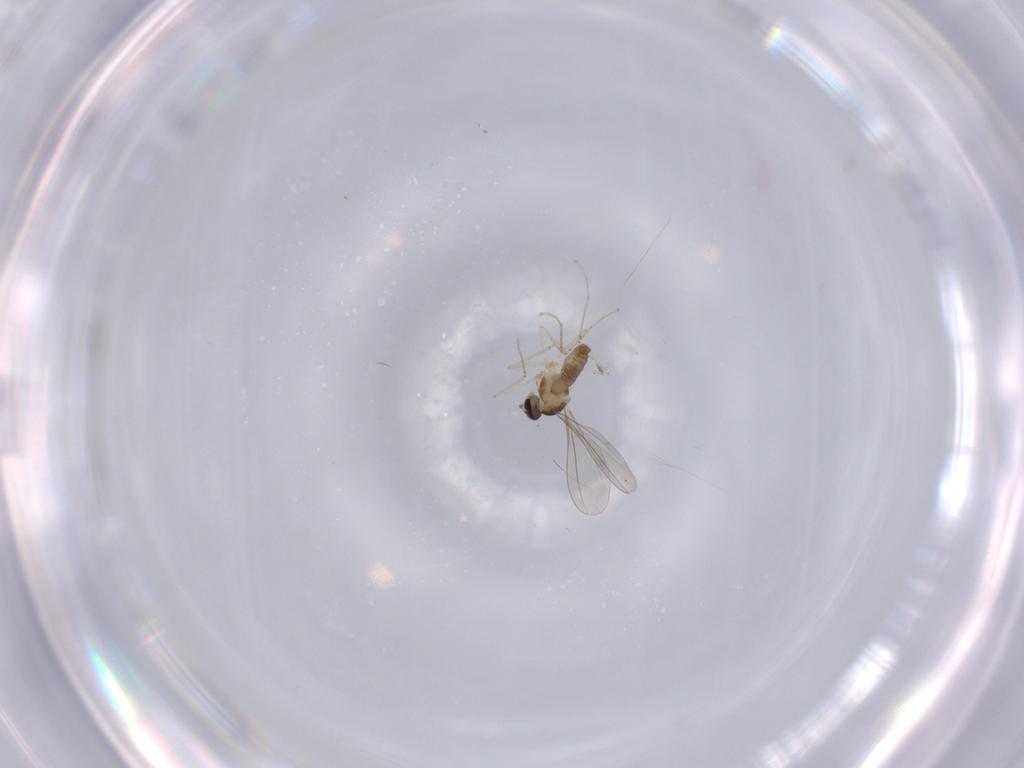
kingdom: Animalia
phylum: Arthropoda
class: Insecta
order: Diptera
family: Cecidomyiidae
